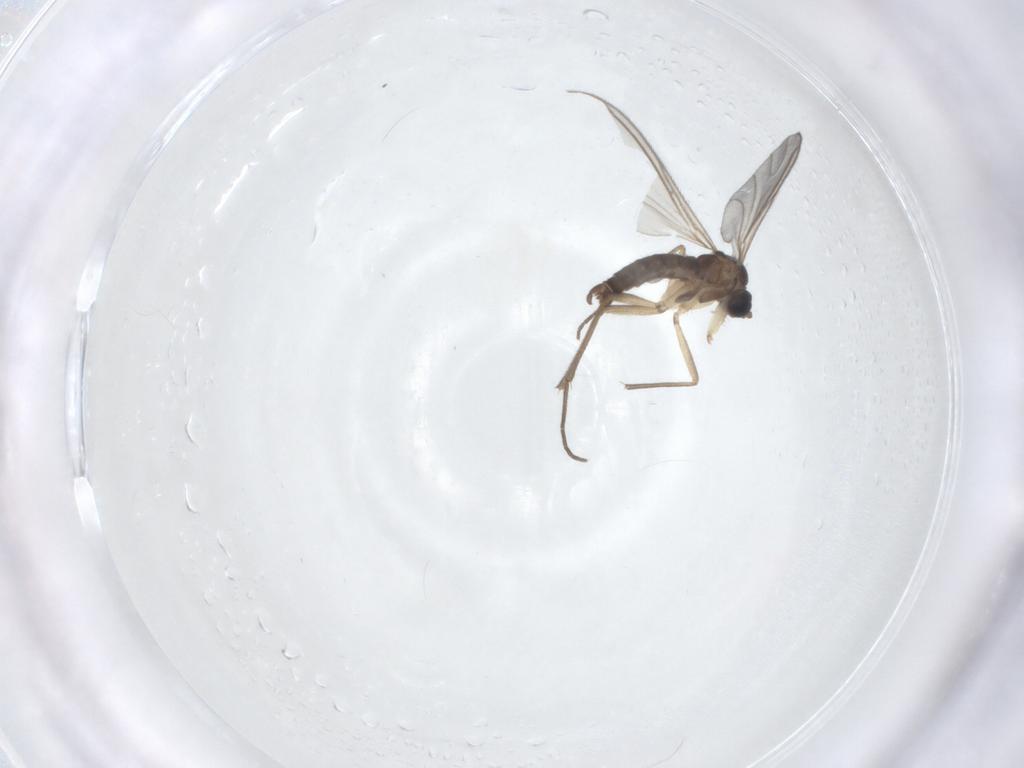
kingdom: Animalia
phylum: Arthropoda
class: Insecta
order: Diptera
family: Sciaridae
